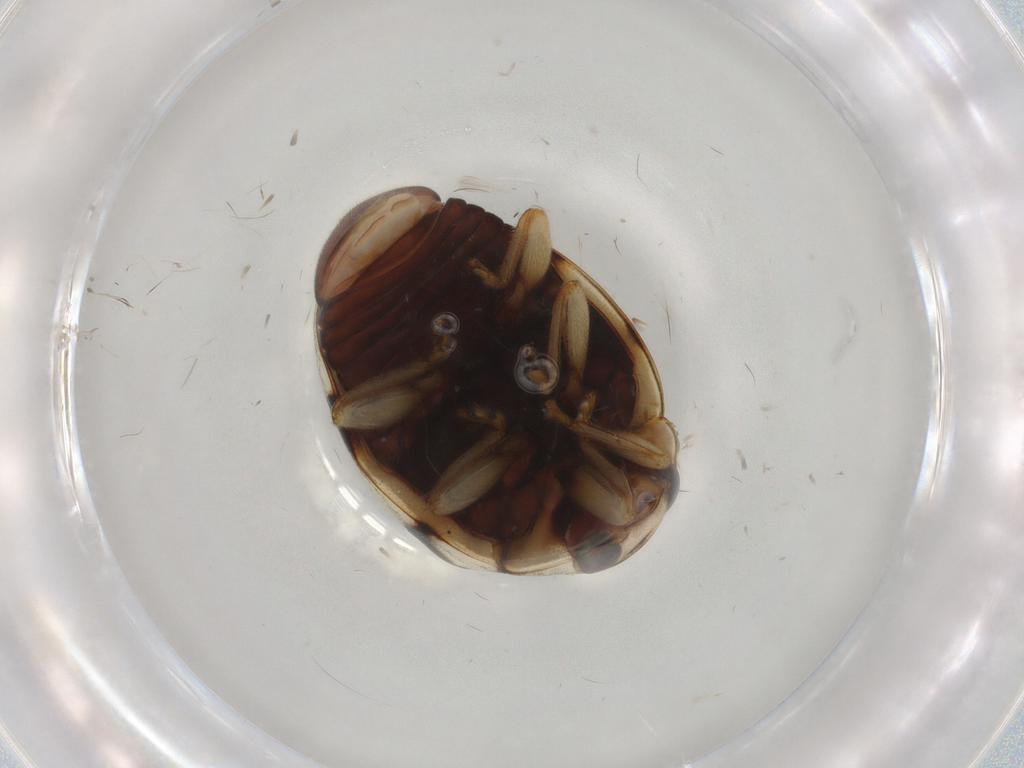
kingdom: Animalia
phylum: Arthropoda
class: Insecta
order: Coleoptera
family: Coccinellidae
